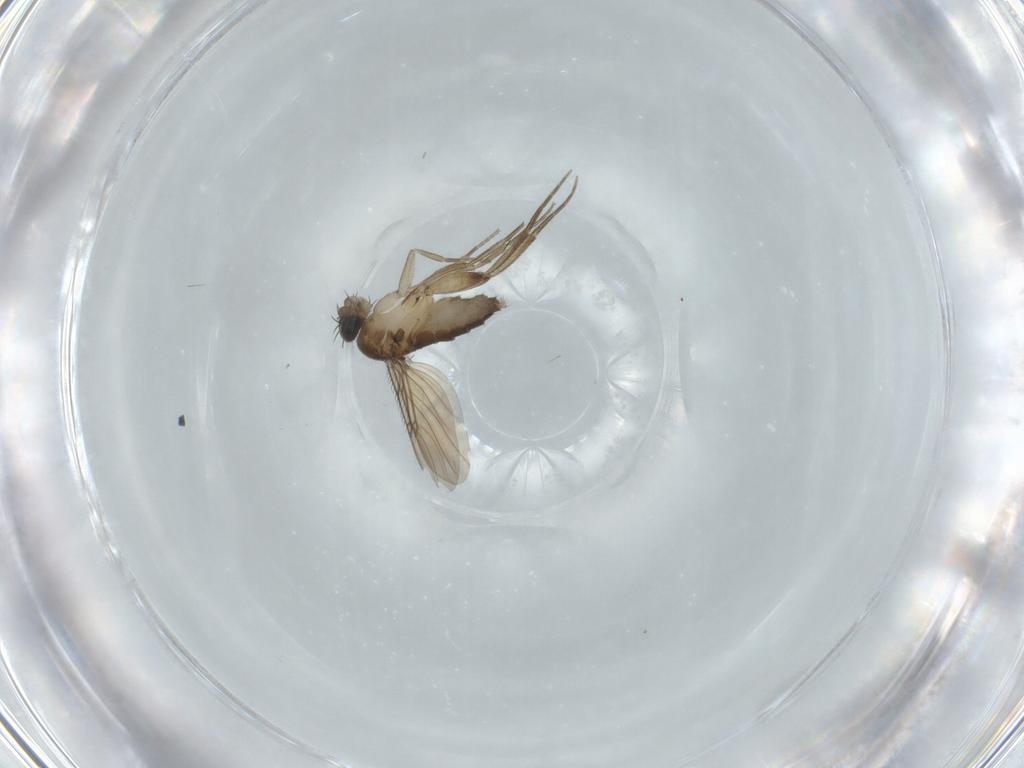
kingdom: Animalia
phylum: Arthropoda
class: Insecta
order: Diptera
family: Phoridae
